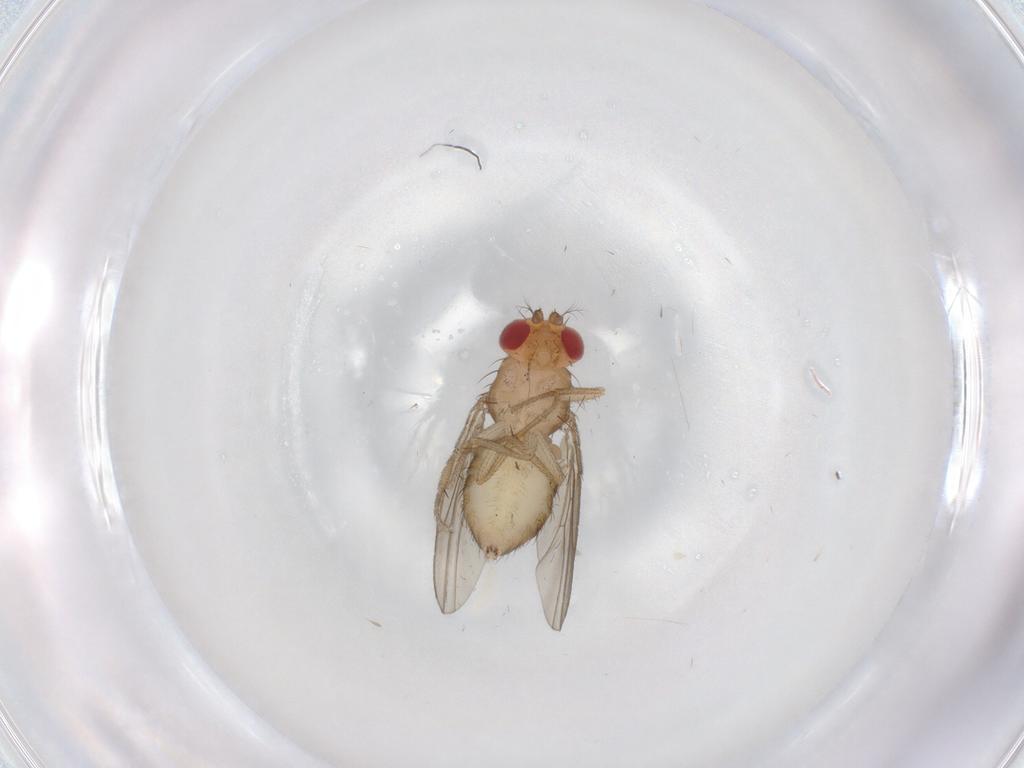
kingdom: Animalia
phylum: Arthropoda
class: Insecta
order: Diptera
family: Drosophilidae
